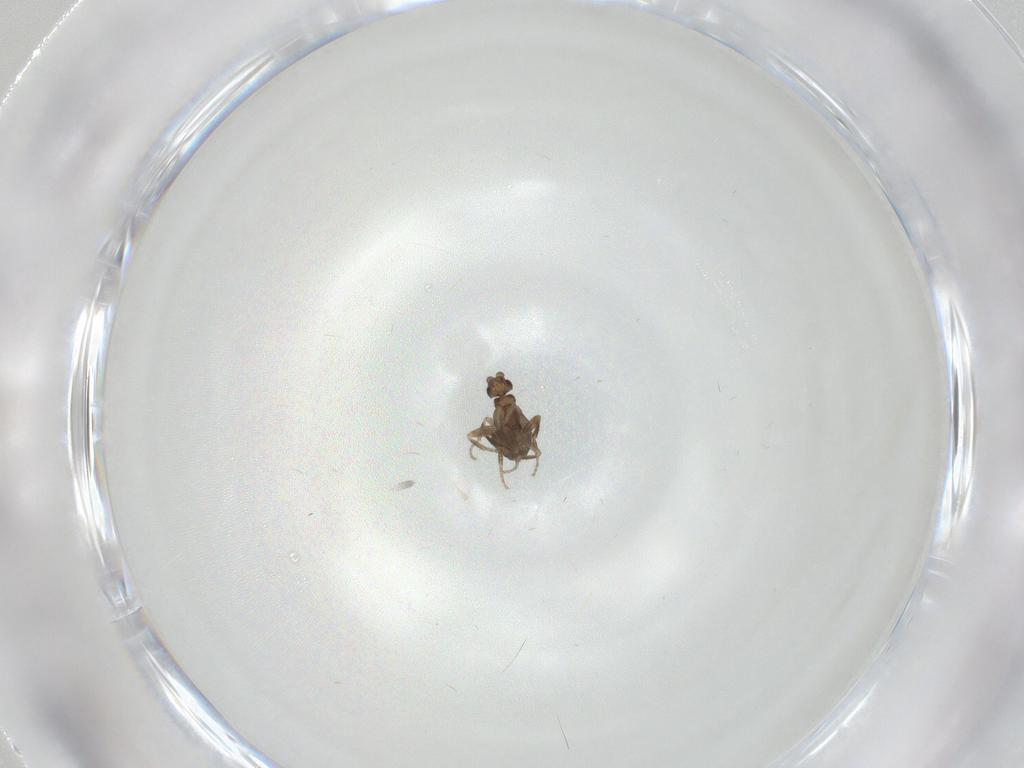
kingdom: Animalia
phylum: Arthropoda
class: Insecta
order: Diptera
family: Phoridae
